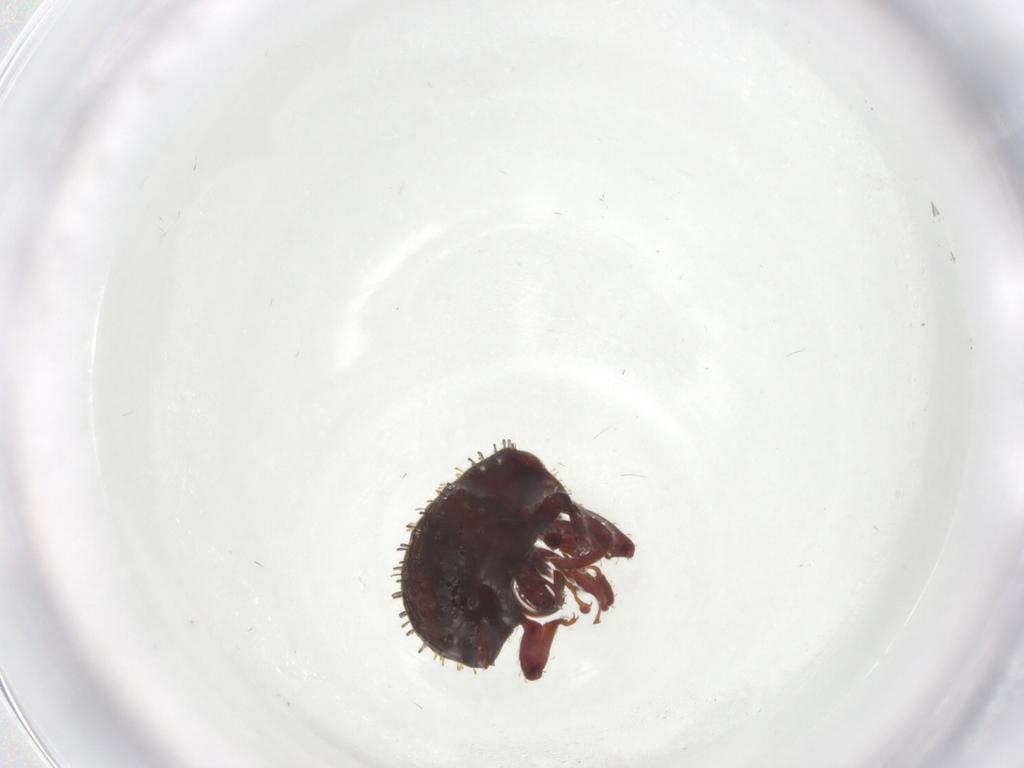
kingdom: Animalia
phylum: Arthropoda
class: Insecta
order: Coleoptera
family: Curculionidae
